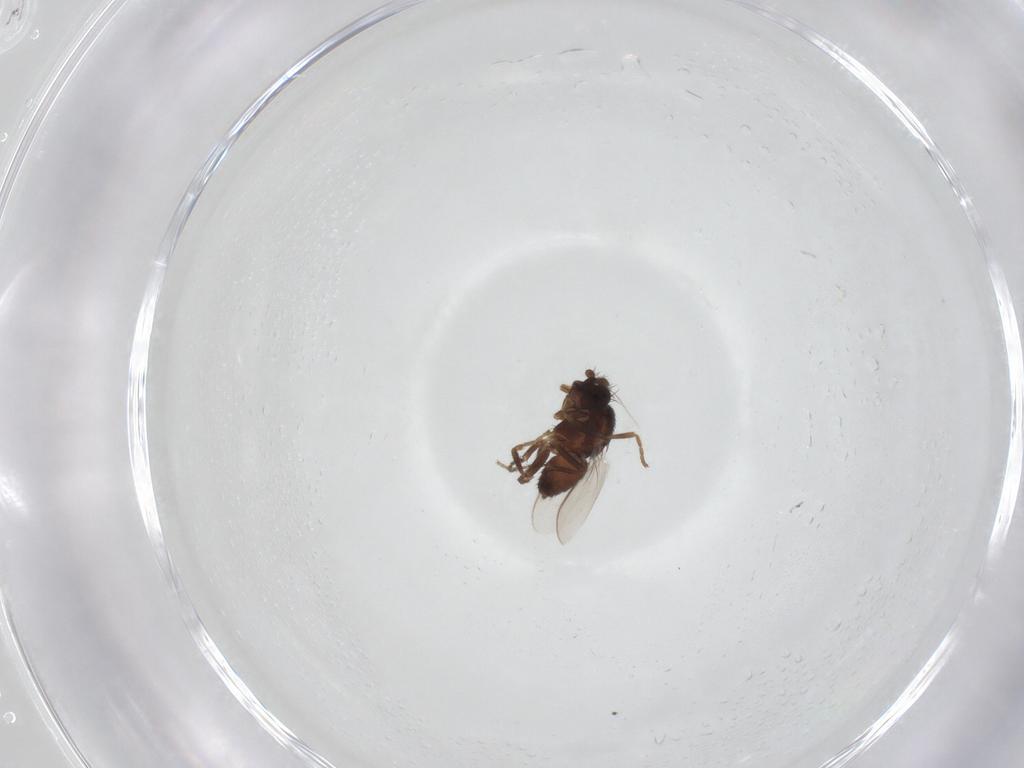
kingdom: Animalia
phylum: Arthropoda
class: Insecta
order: Diptera
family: Sphaeroceridae
